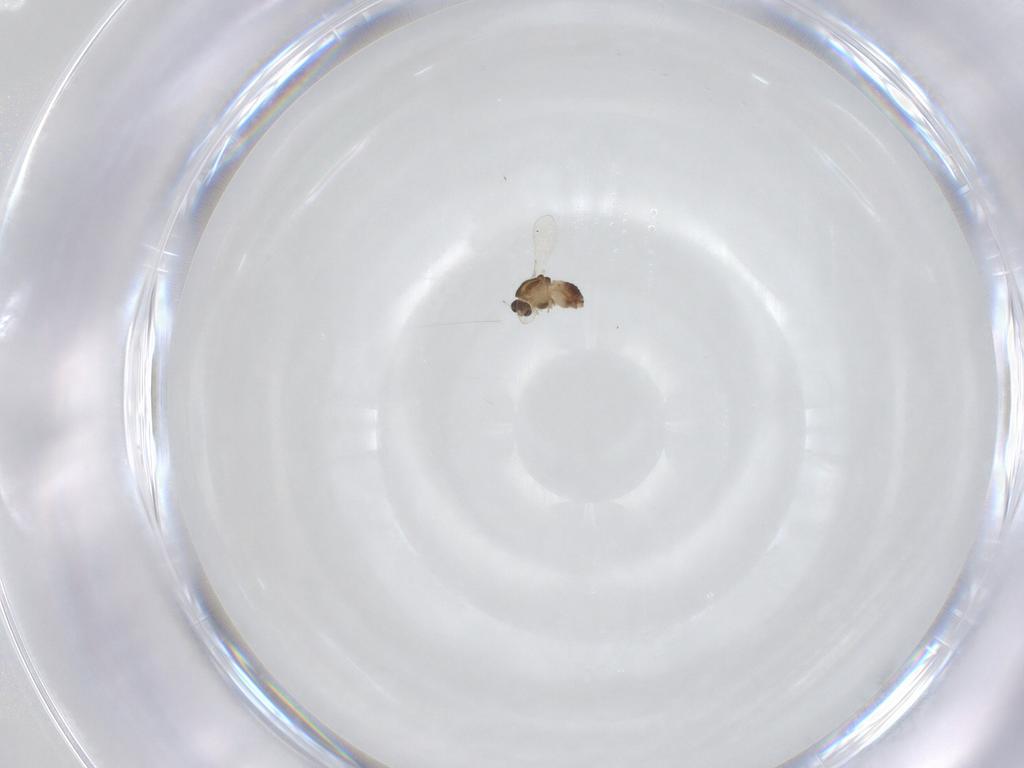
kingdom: Animalia
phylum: Arthropoda
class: Insecta
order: Diptera
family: Chironomidae
